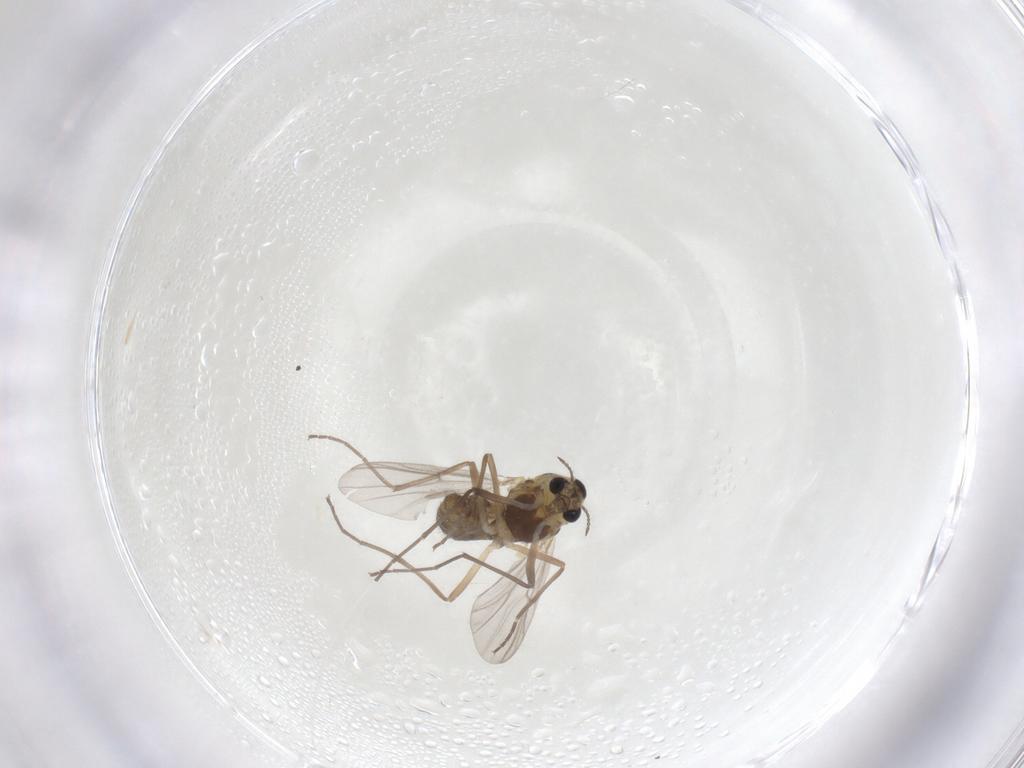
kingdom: Animalia
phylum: Arthropoda
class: Insecta
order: Diptera
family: Chironomidae
